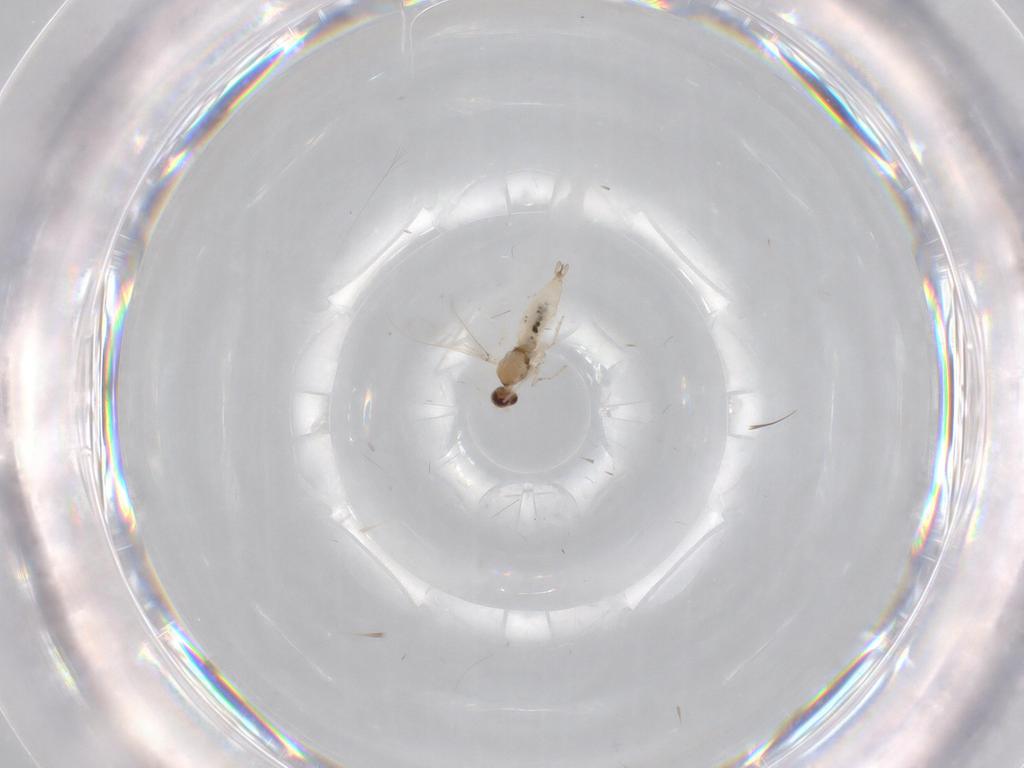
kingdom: Animalia
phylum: Arthropoda
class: Insecta
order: Diptera
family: Cecidomyiidae
